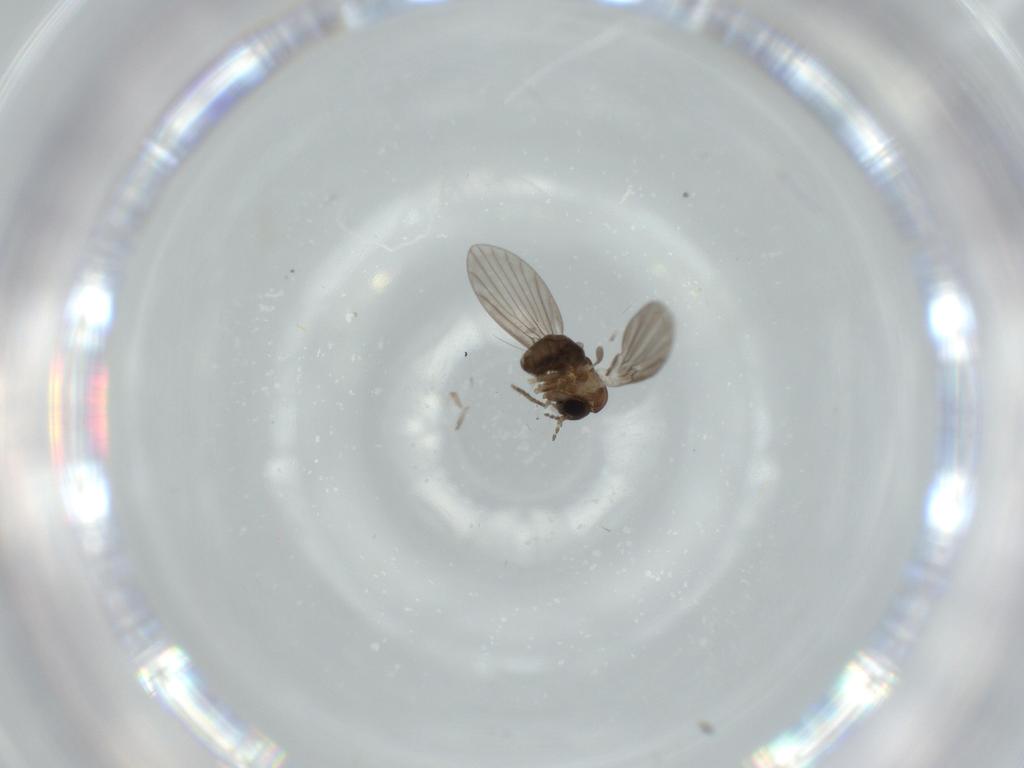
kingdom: Animalia
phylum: Arthropoda
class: Insecta
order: Diptera
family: Psychodidae
